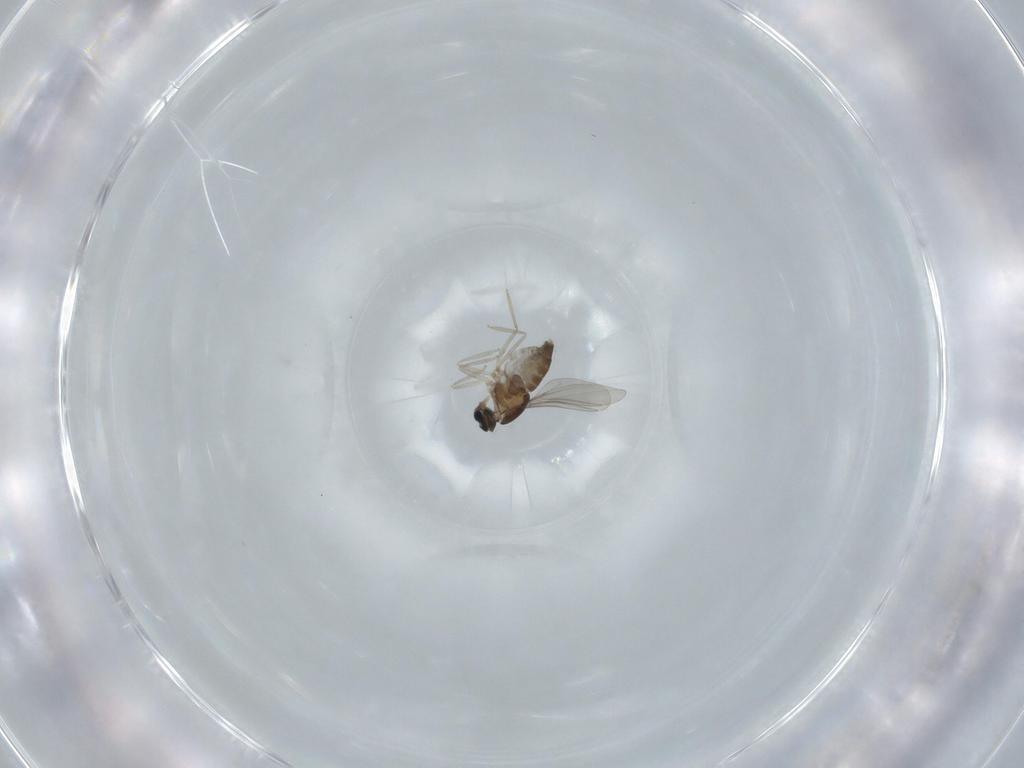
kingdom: Animalia
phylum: Arthropoda
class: Insecta
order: Diptera
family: Cecidomyiidae
